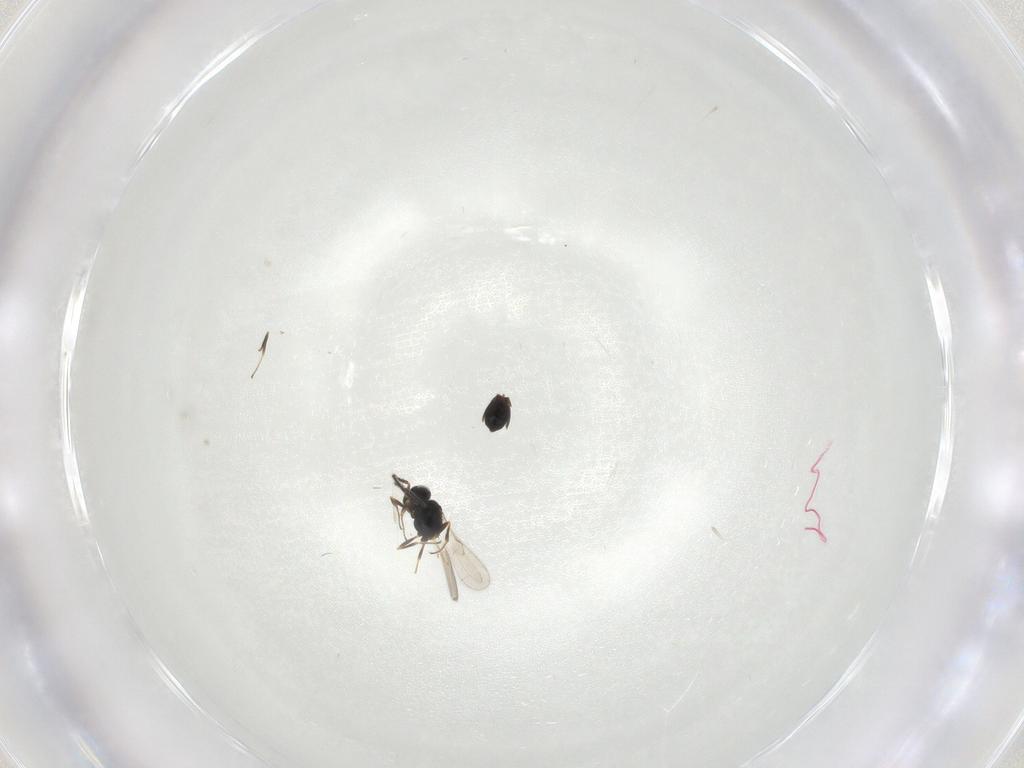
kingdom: Animalia
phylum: Arthropoda
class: Insecta
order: Hymenoptera
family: Scelionidae
